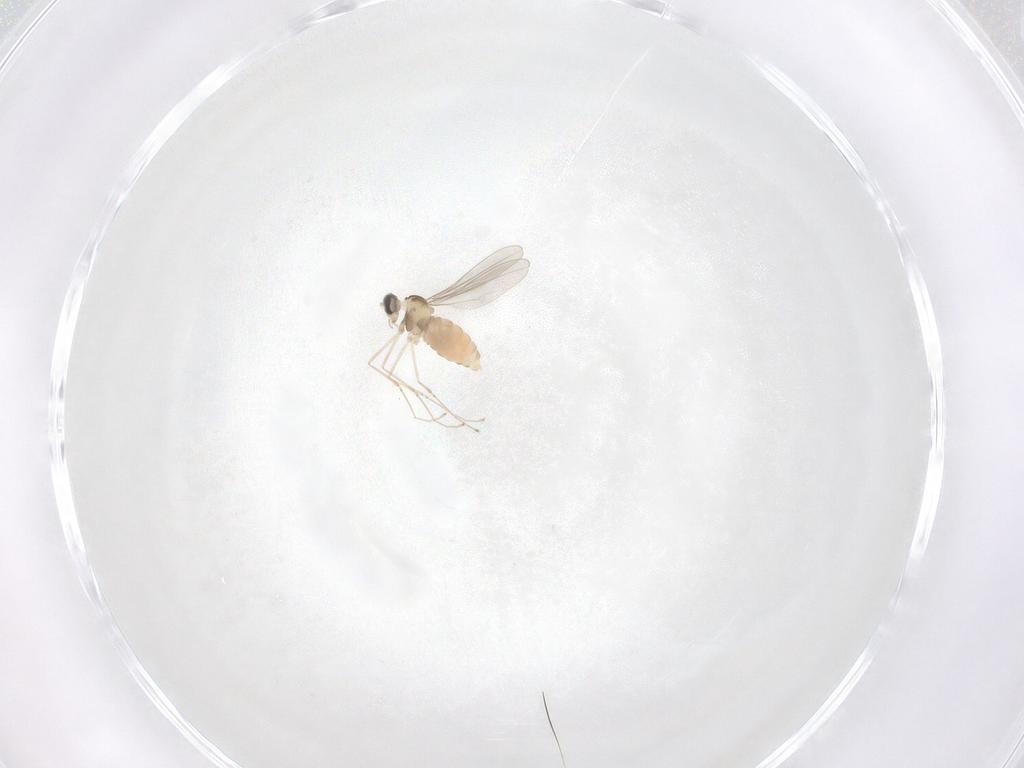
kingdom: Animalia
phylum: Arthropoda
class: Insecta
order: Diptera
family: Cecidomyiidae
